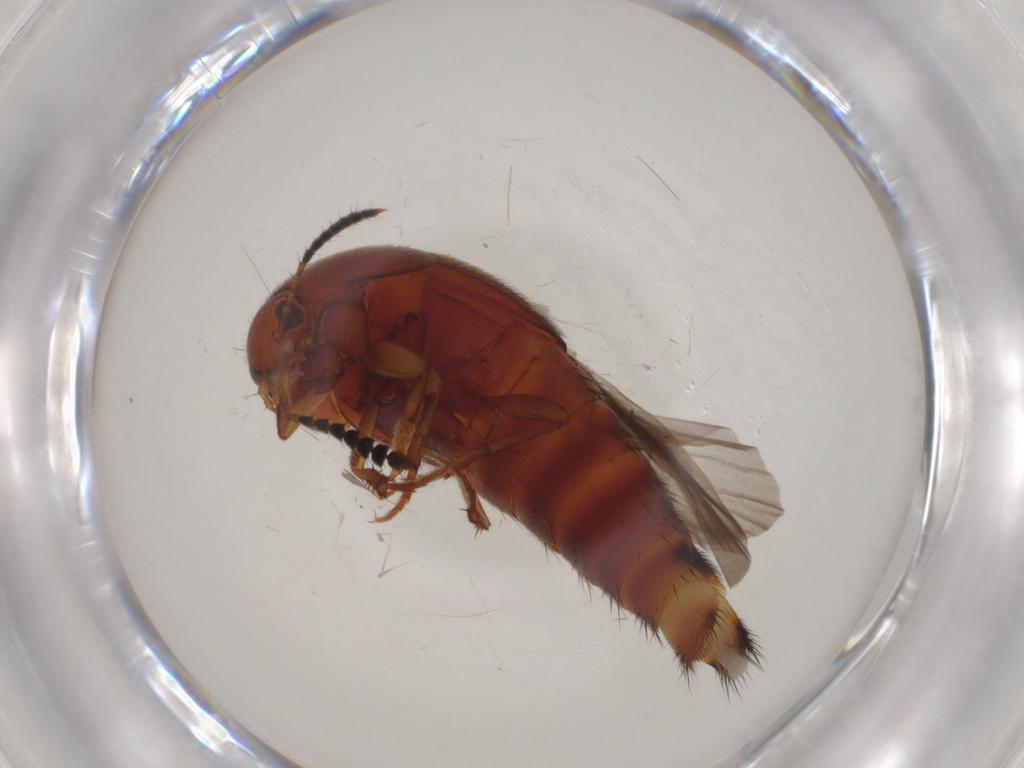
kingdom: Animalia
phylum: Arthropoda
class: Insecta
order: Coleoptera
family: Staphylinidae
